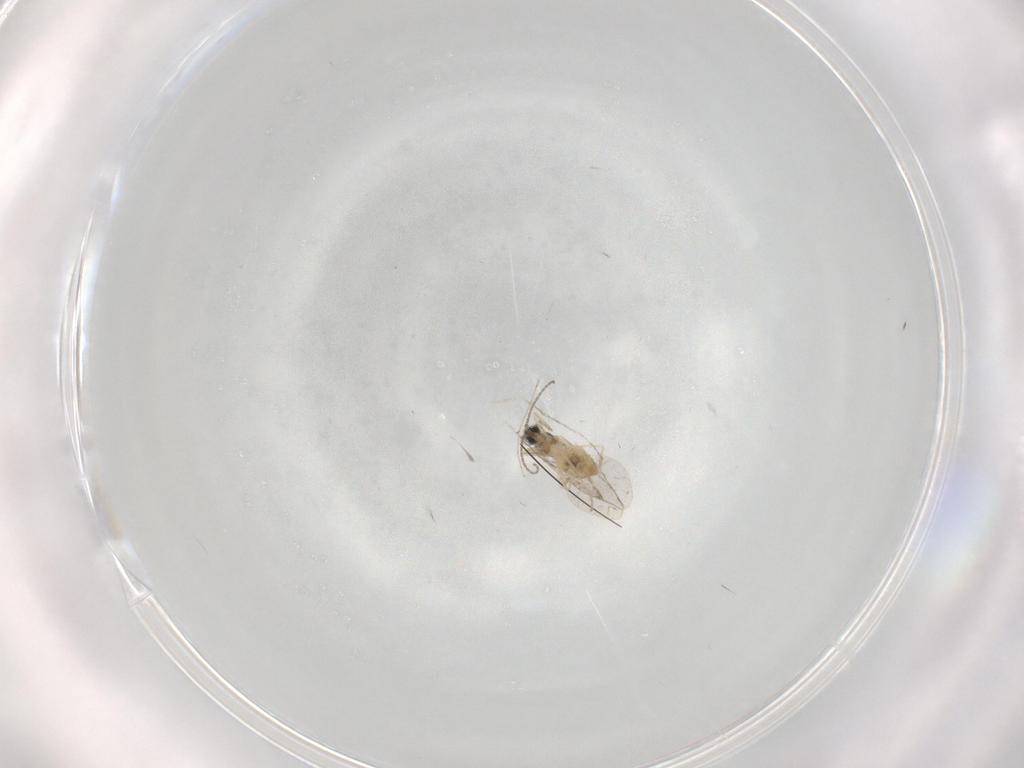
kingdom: Animalia
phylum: Arthropoda
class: Insecta
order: Diptera
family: Cecidomyiidae
